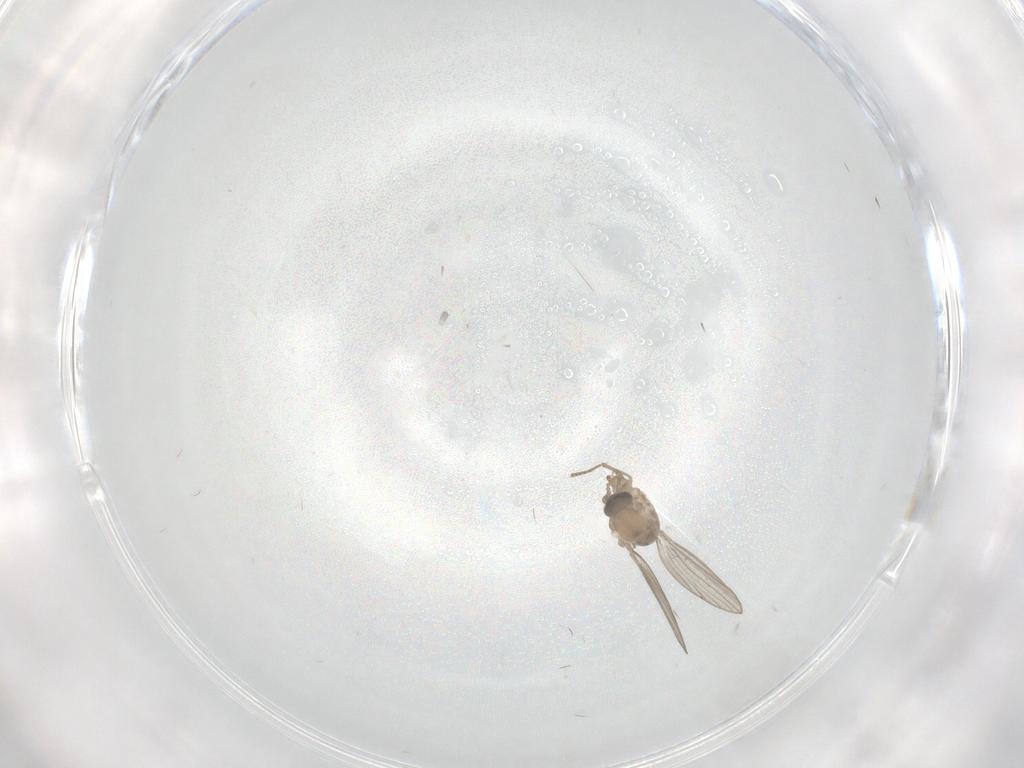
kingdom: Animalia
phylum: Arthropoda
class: Insecta
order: Diptera
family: Psychodidae
